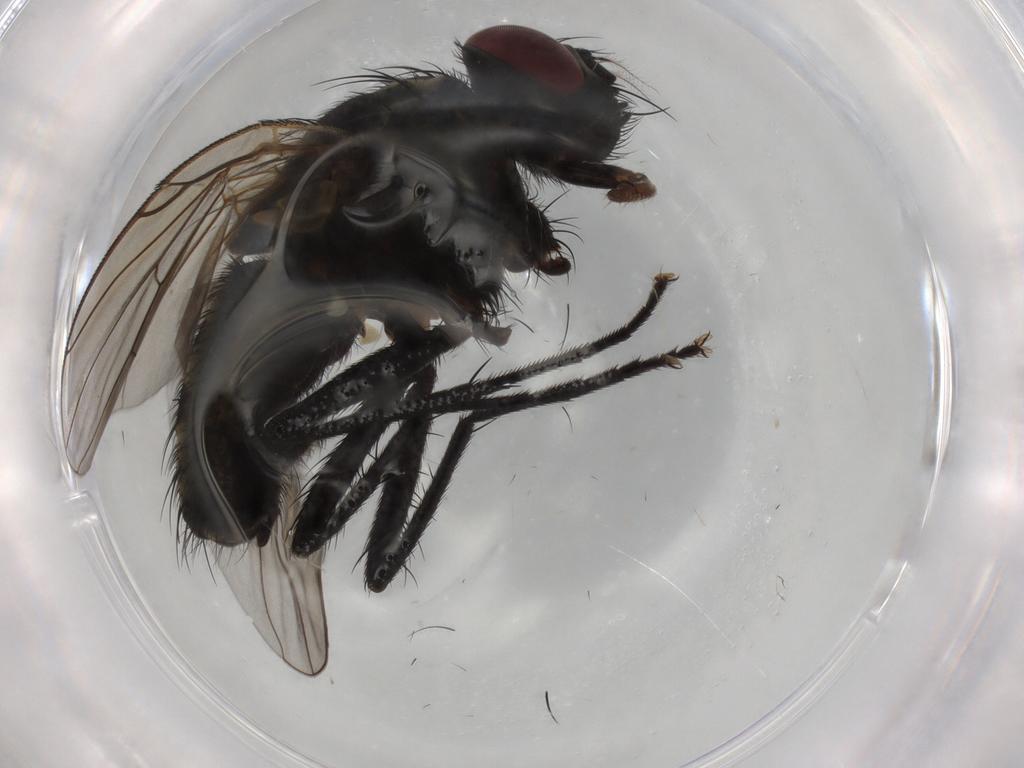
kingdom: Animalia
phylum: Arthropoda
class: Insecta
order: Diptera
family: Muscidae
